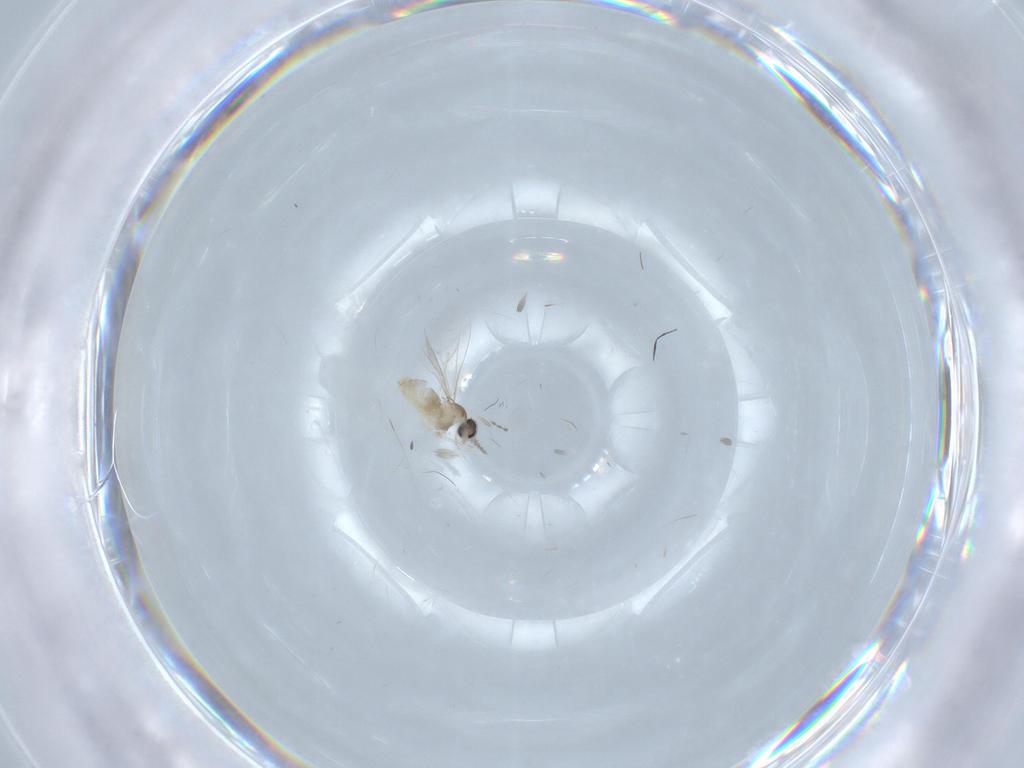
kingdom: Animalia
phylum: Arthropoda
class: Insecta
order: Diptera
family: Cecidomyiidae
